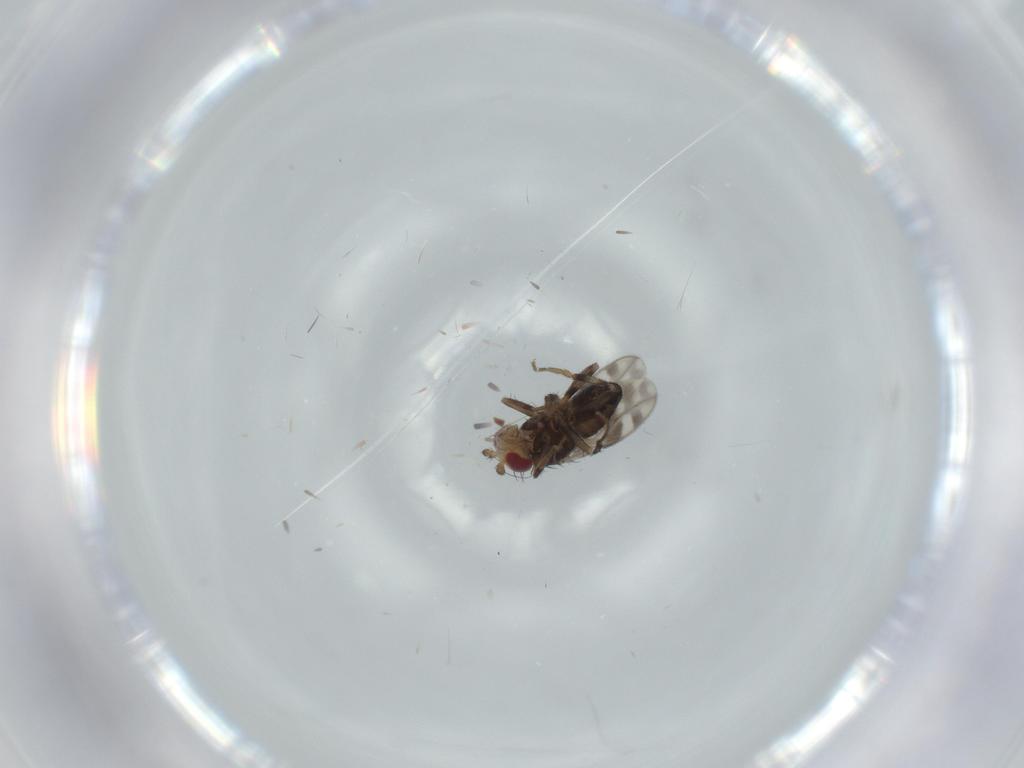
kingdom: Animalia
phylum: Arthropoda
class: Insecta
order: Diptera
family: Sphaeroceridae
